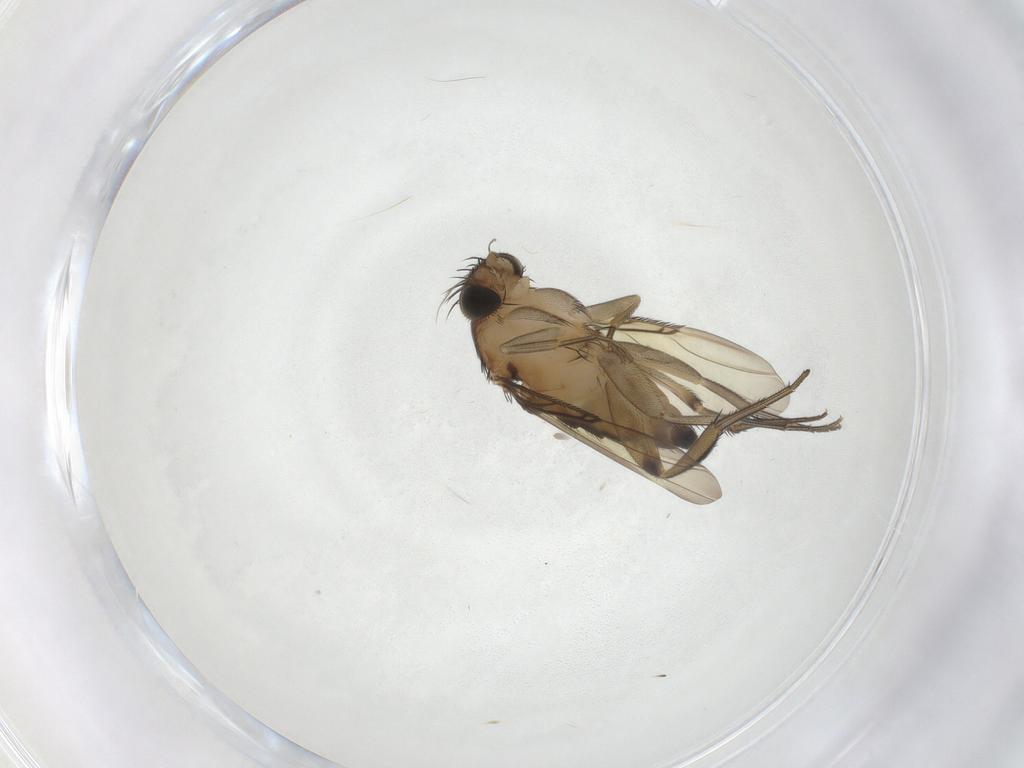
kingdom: Animalia
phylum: Arthropoda
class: Insecta
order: Diptera
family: Phoridae
